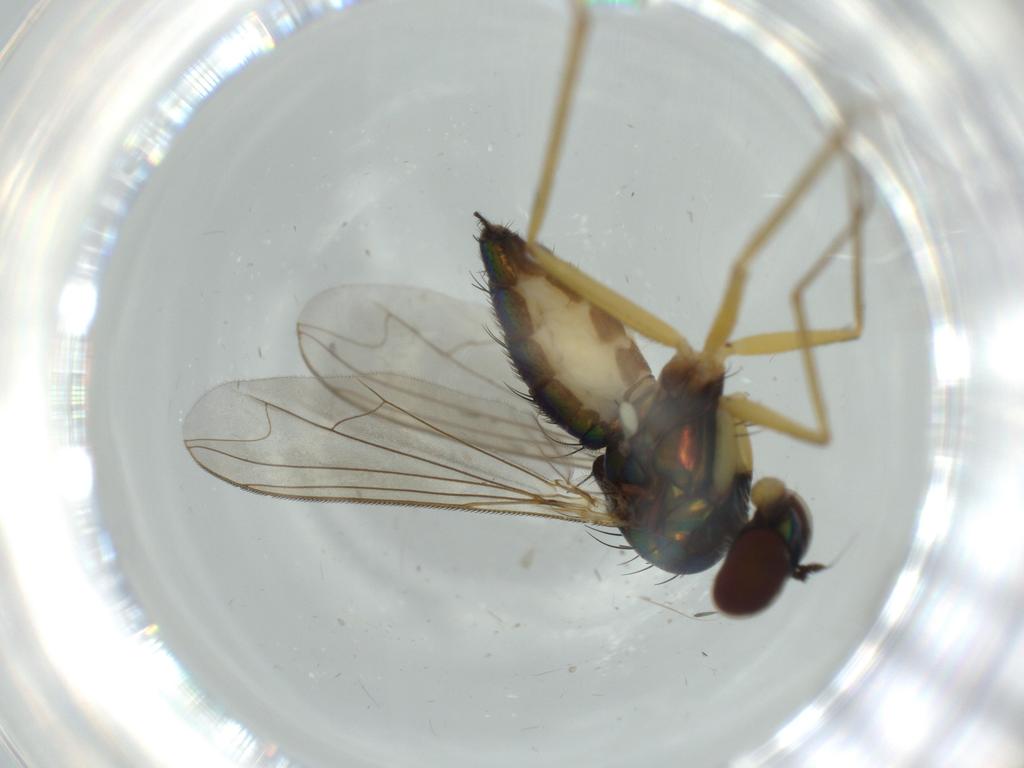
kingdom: Animalia
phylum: Arthropoda
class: Insecta
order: Diptera
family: Dolichopodidae
